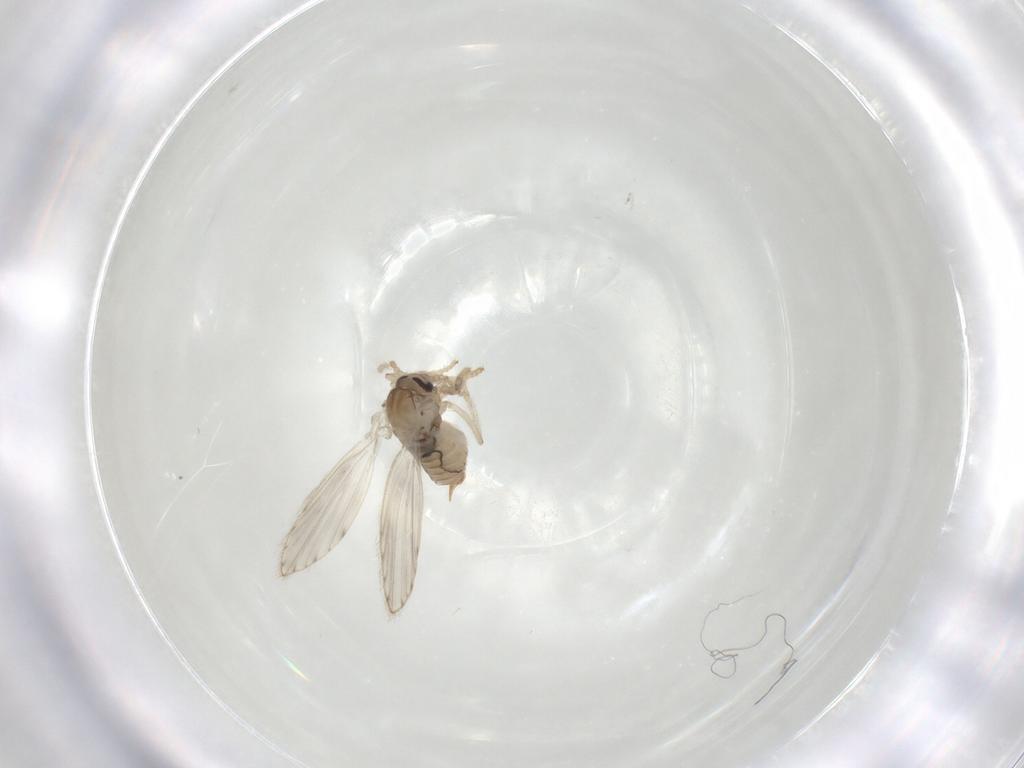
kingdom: Animalia
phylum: Arthropoda
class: Insecta
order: Diptera
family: Cecidomyiidae
